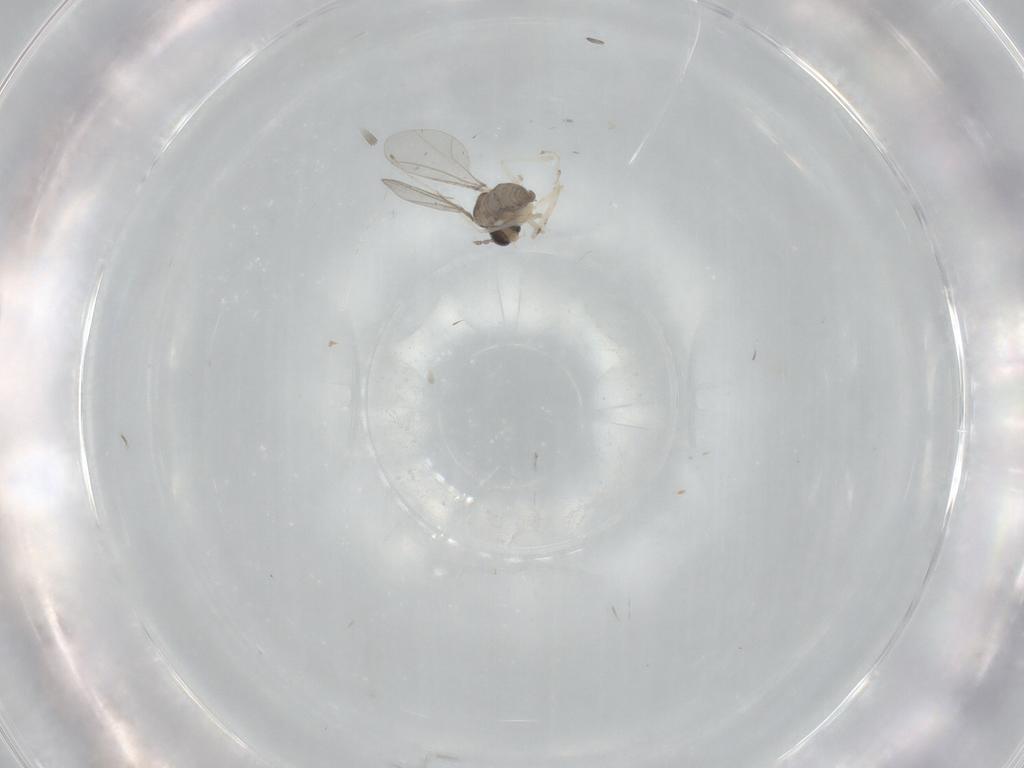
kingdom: Animalia
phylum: Arthropoda
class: Insecta
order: Diptera
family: Cecidomyiidae
